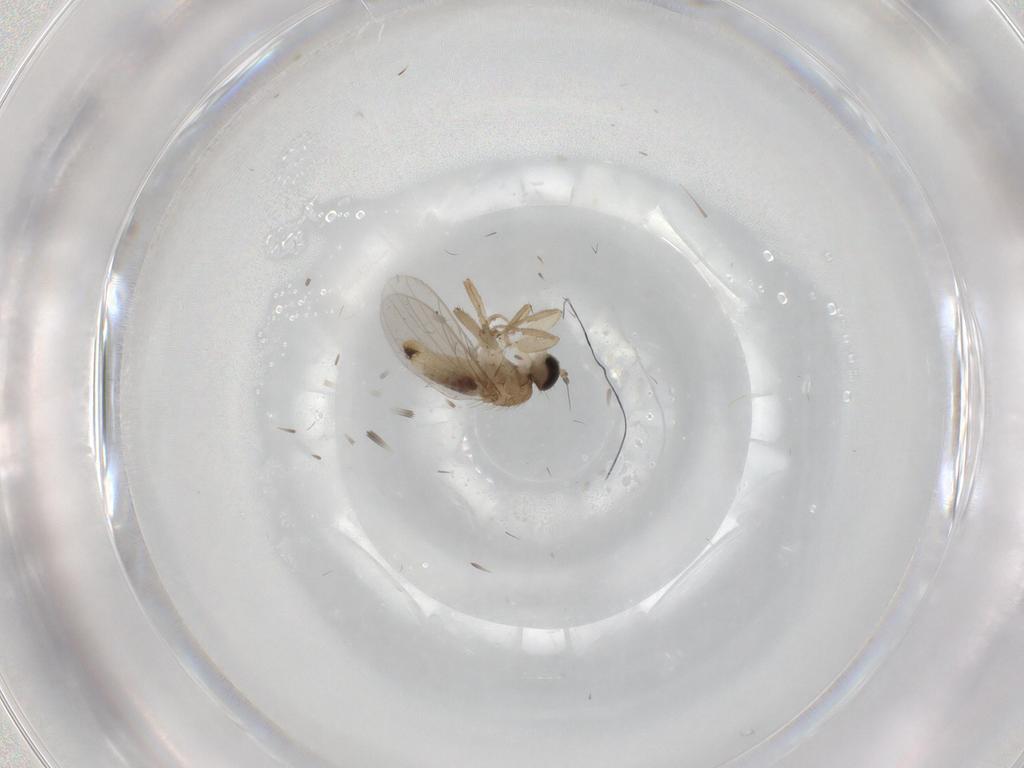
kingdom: Animalia
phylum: Arthropoda
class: Insecta
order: Diptera
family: Hybotidae
